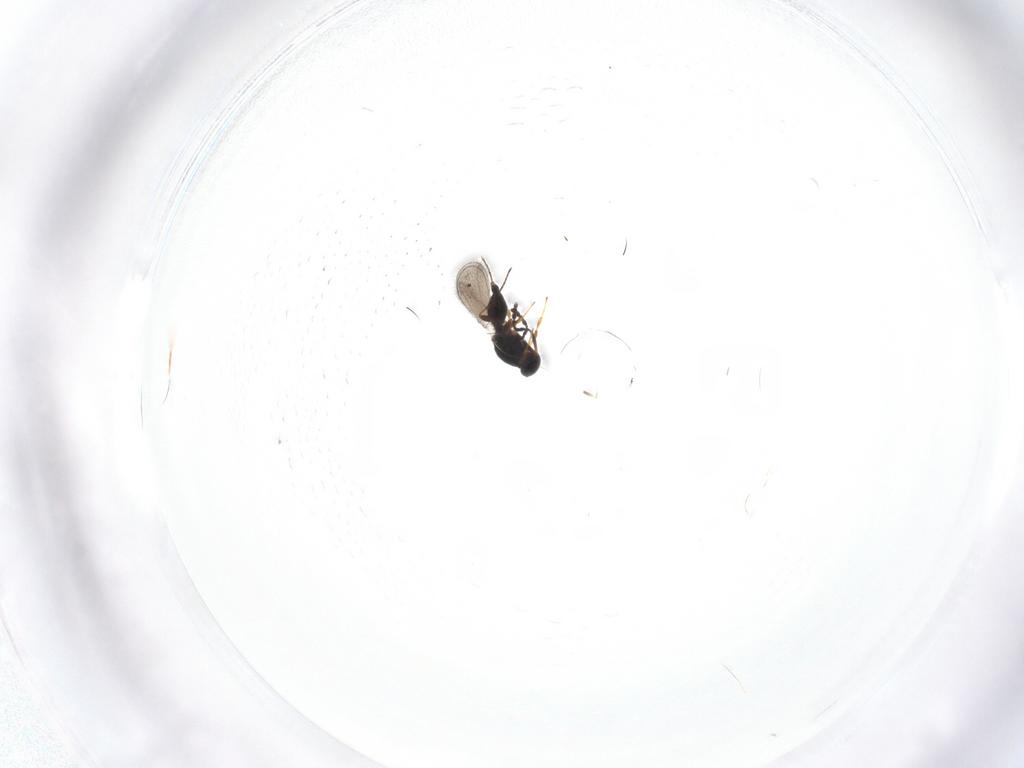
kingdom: Animalia
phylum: Arthropoda
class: Insecta
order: Hymenoptera
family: Platygastridae
